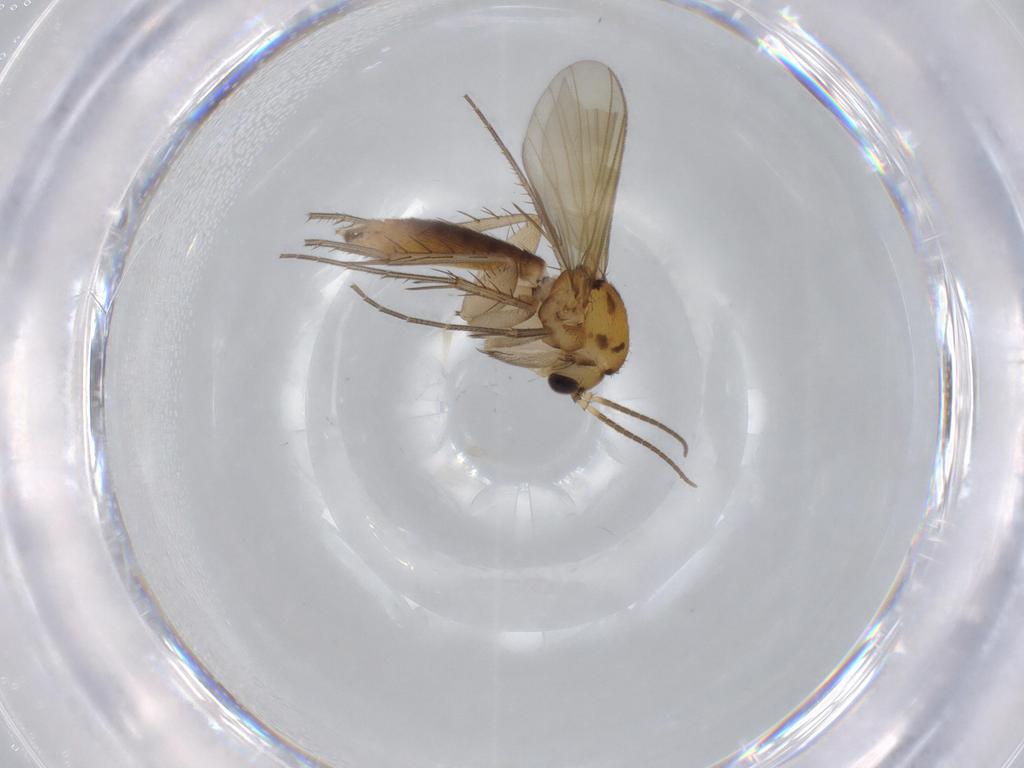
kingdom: Animalia
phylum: Arthropoda
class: Insecta
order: Diptera
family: Mycetophilidae
